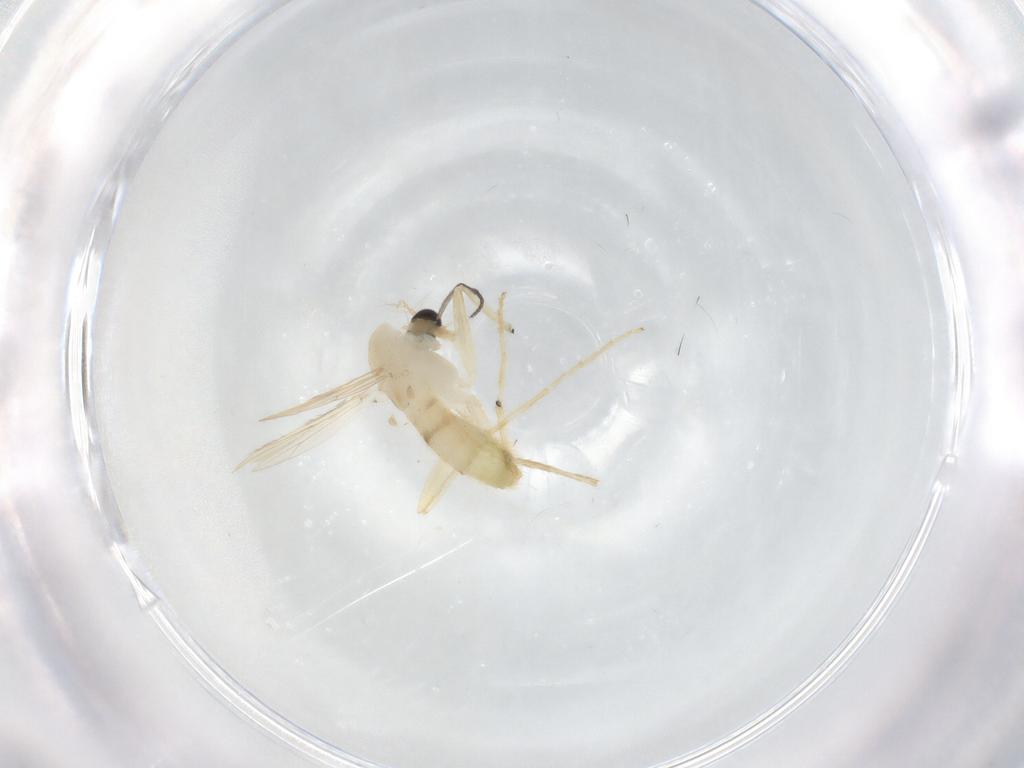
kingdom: Animalia
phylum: Arthropoda
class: Insecta
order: Diptera
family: Chironomidae
